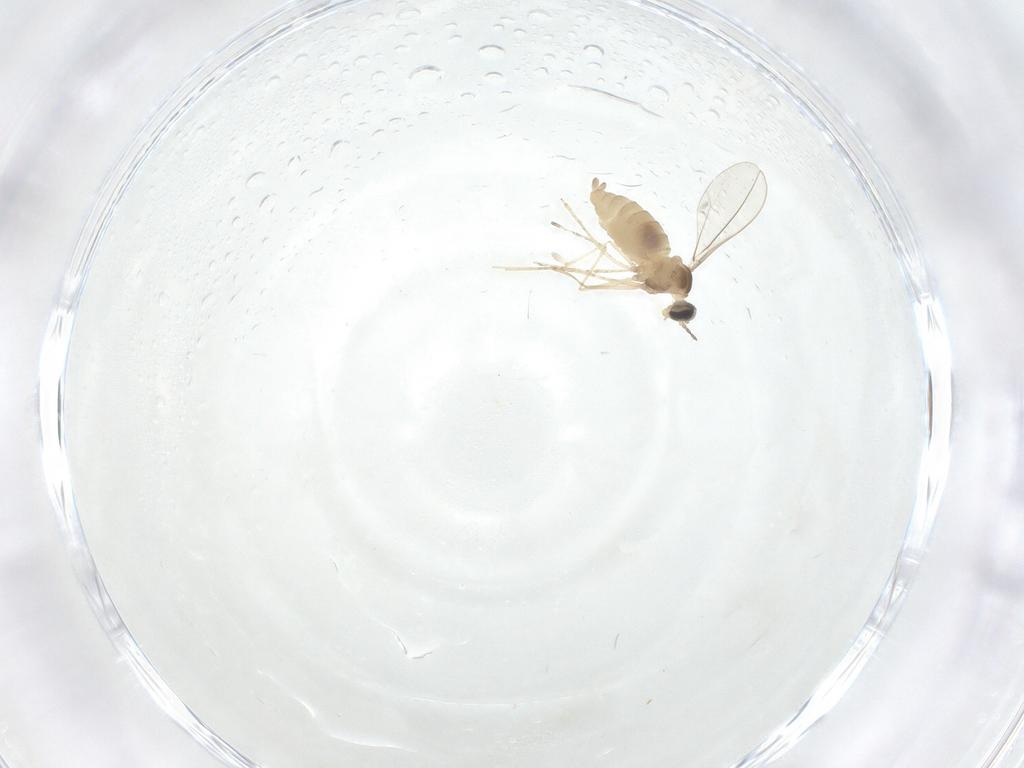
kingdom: Animalia
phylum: Arthropoda
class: Insecta
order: Diptera
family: Cecidomyiidae
